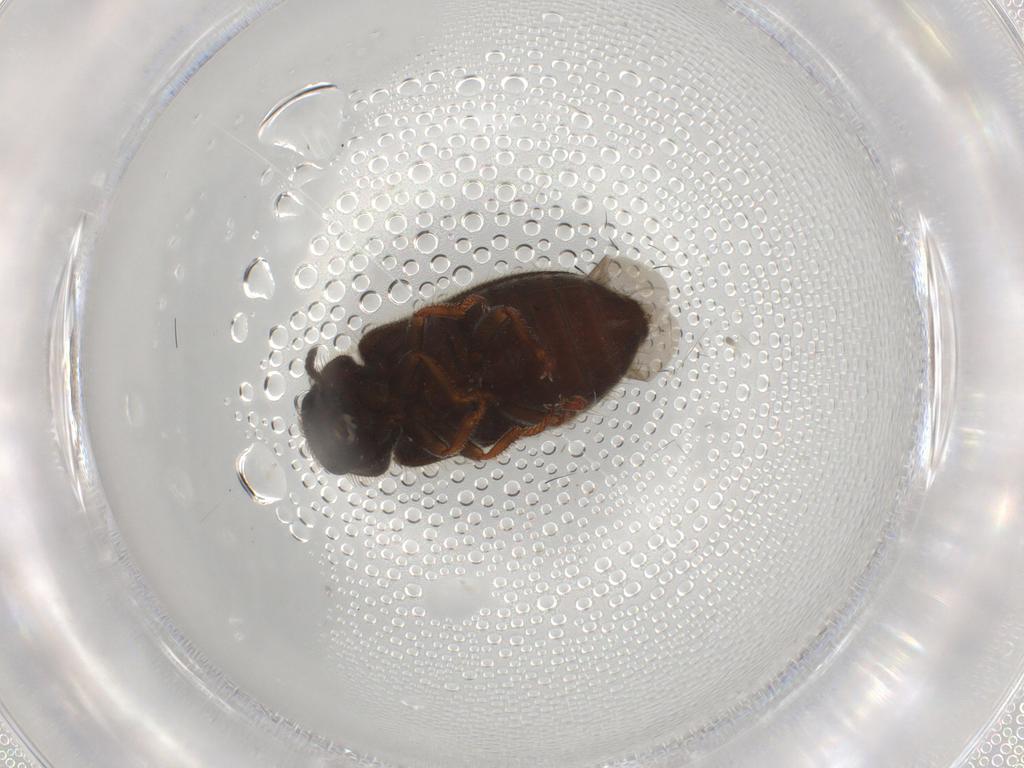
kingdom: Animalia
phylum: Arthropoda
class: Insecta
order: Coleoptera
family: Melyridae
